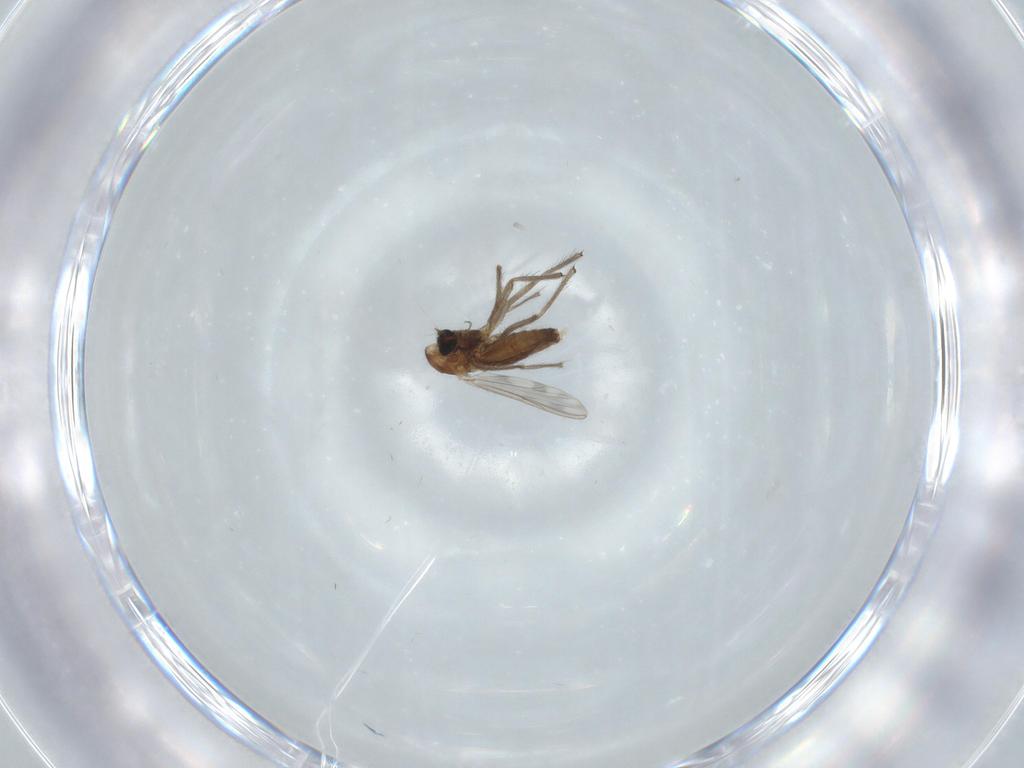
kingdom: Animalia
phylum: Arthropoda
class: Insecta
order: Diptera
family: Chironomidae
